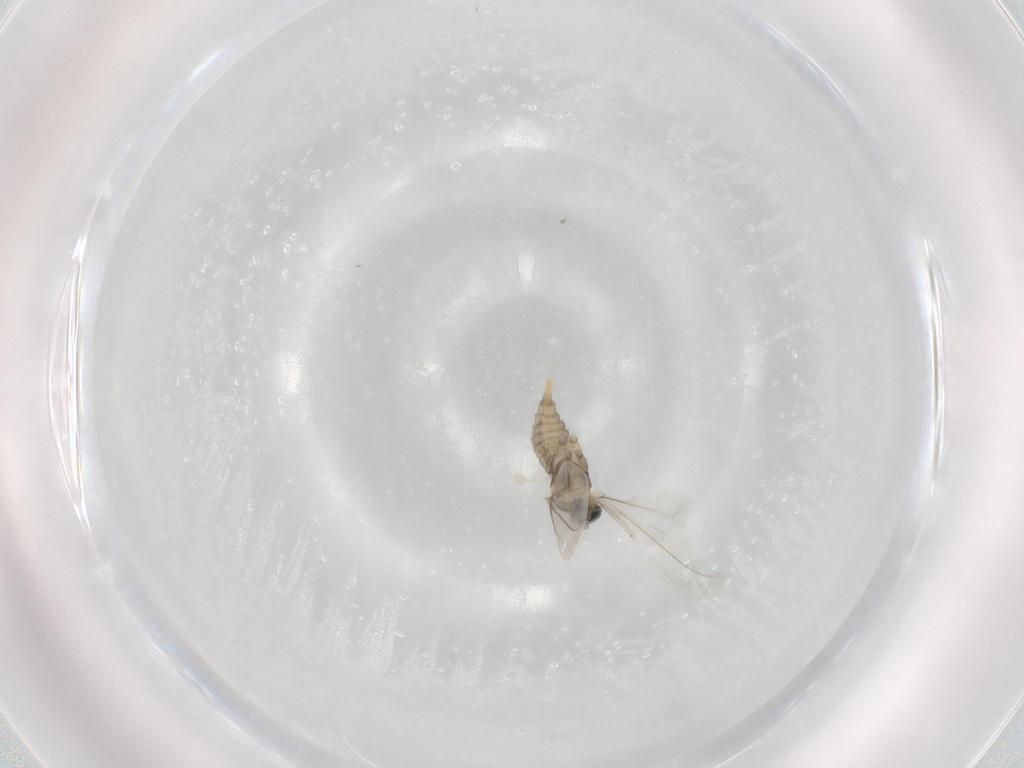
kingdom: Animalia
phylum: Arthropoda
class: Insecta
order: Diptera
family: Cecidomyiidae
